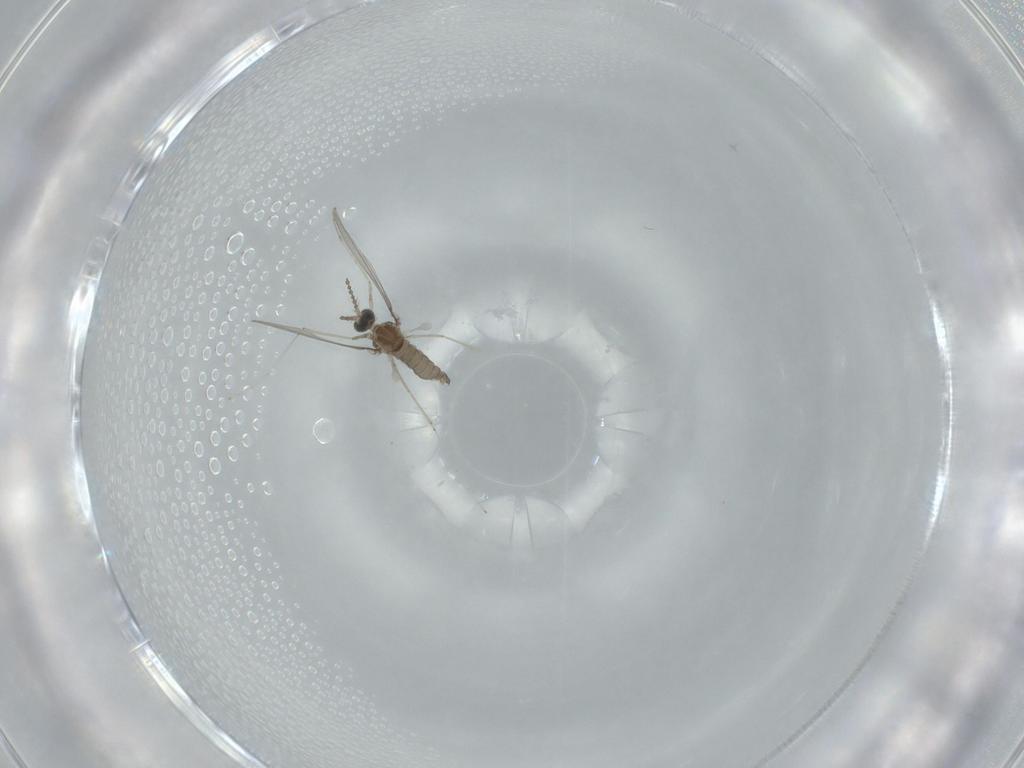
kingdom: Animalia
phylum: Arthropoda
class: Insecta
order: Diptera
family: Cecidomyiidae
